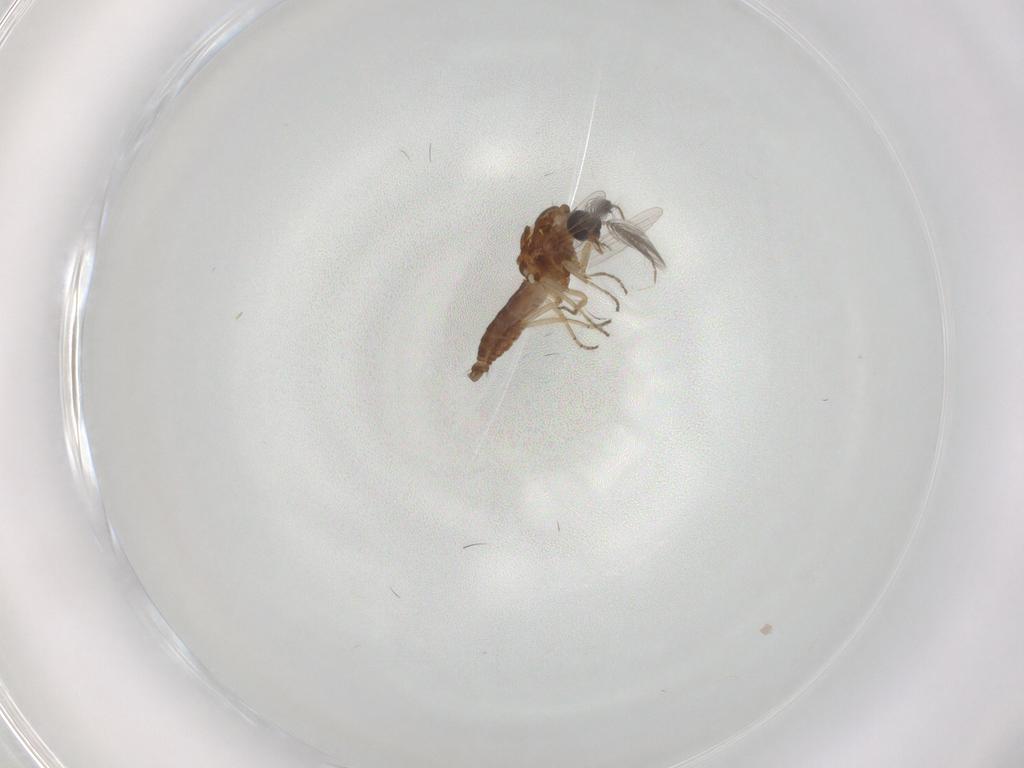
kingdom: Animalia
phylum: Arthropoda
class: Insecta
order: Diptera
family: Ceratopogonidae
